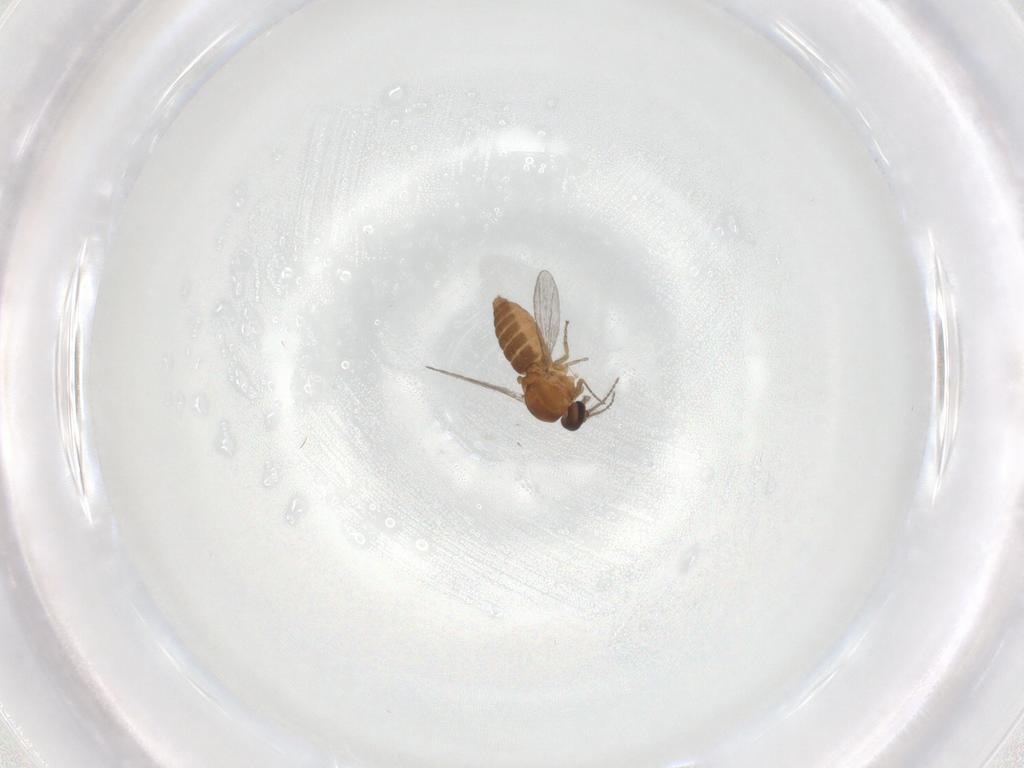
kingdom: Animalia
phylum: Arthropoda
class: Insecta
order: Diptera
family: Ceratopogonidae
